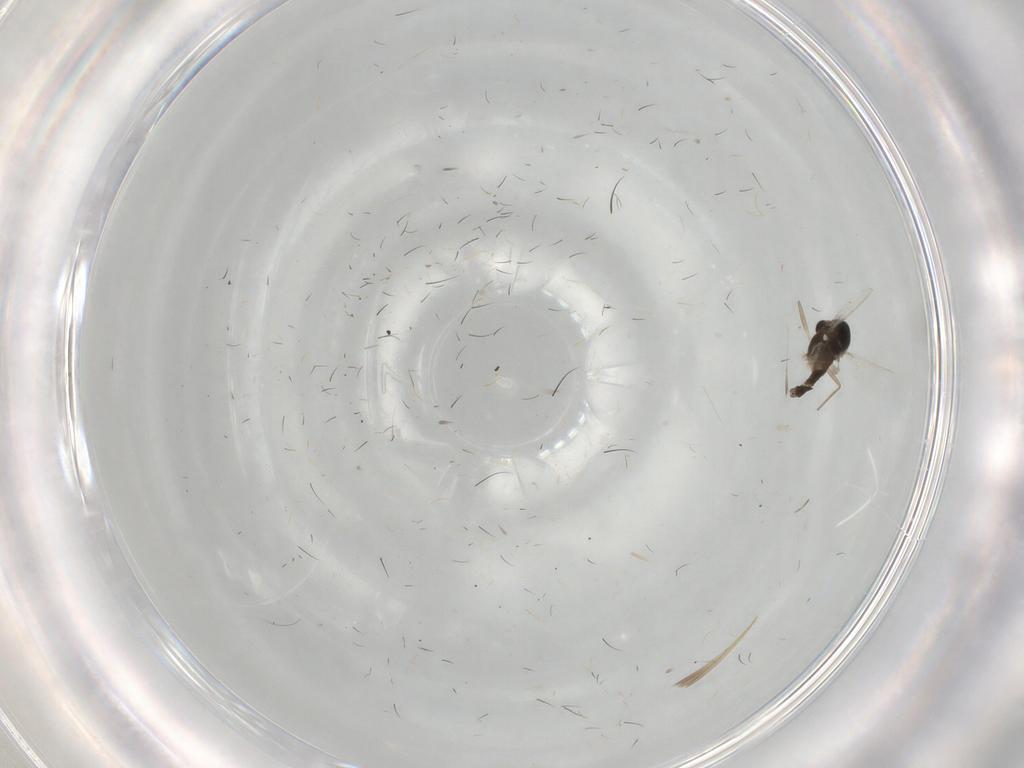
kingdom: Animalia
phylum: Arthropoda
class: Insecta
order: Diptera
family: Chironomidae
